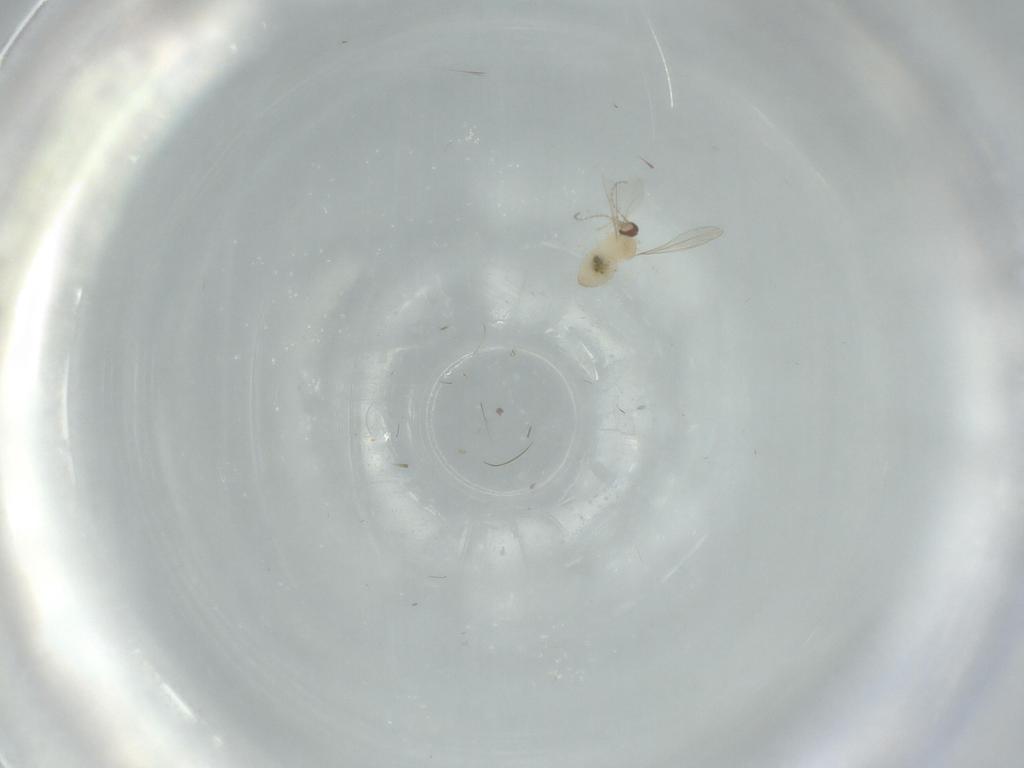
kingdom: Animalia
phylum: Arthropoda
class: Insecta
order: Diptera
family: Cecidomyiidae
